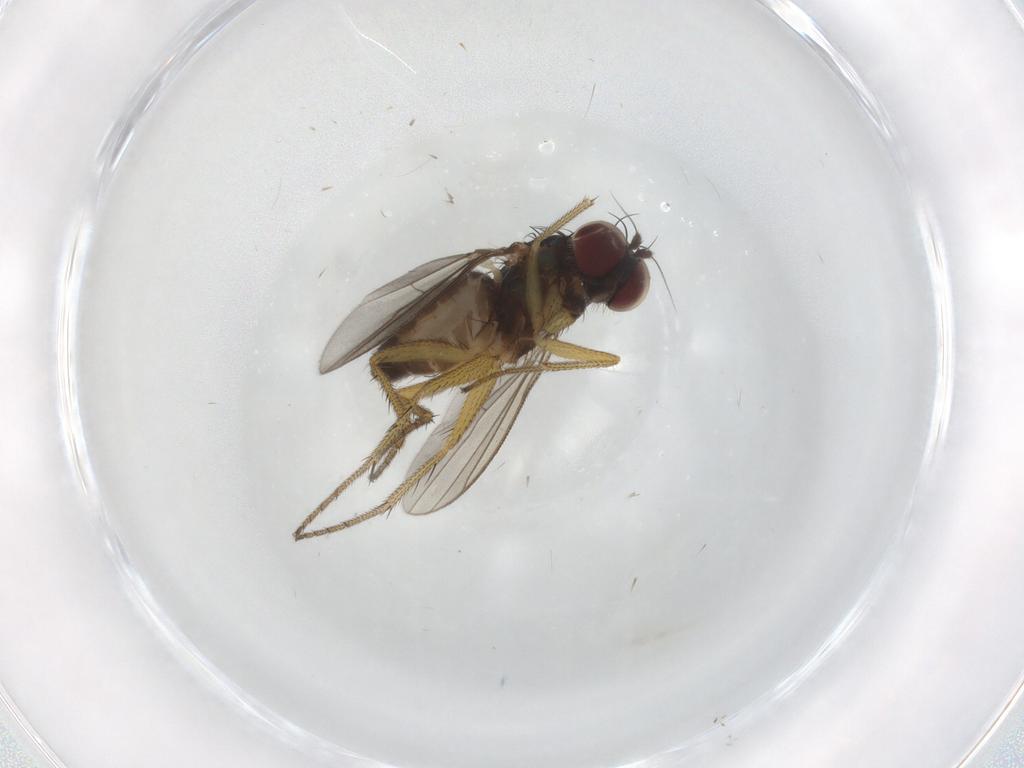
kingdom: Animalia
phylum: Arthropoda
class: Insecta
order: Diptera
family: Dolichopodidae
